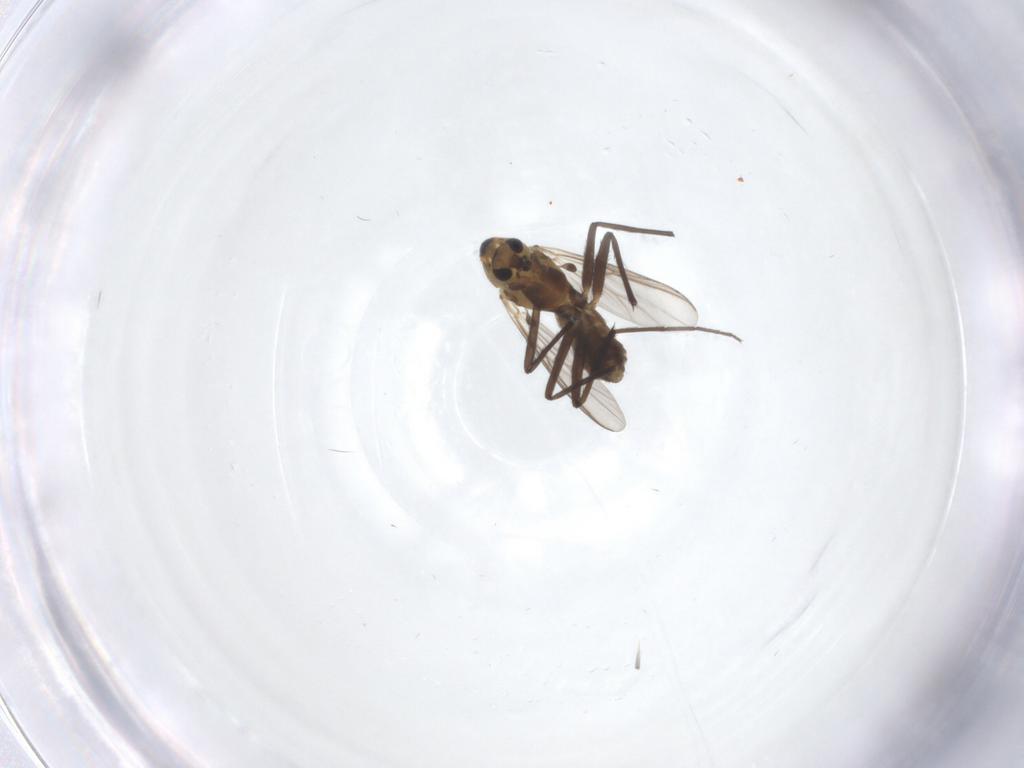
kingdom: Animalia
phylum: Arthropoda
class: Insecta
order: Diptera
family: Chironomidae
